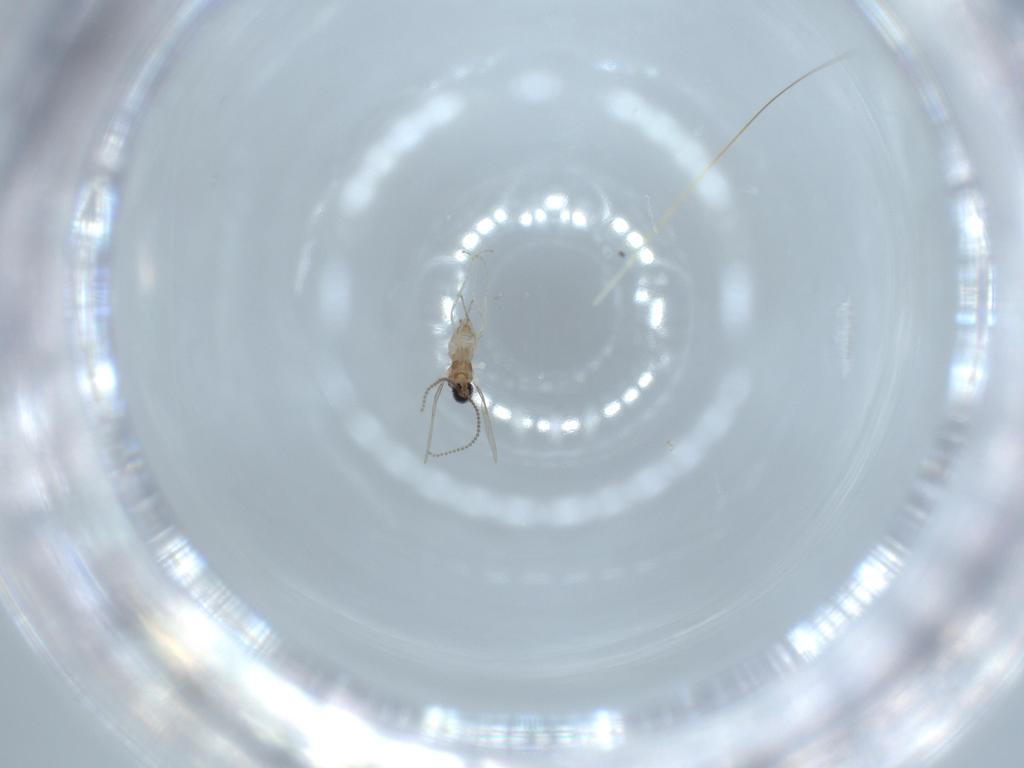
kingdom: Animalia
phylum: Arthropoda
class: Insecta
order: Diptera
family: Cecidomyiidae
